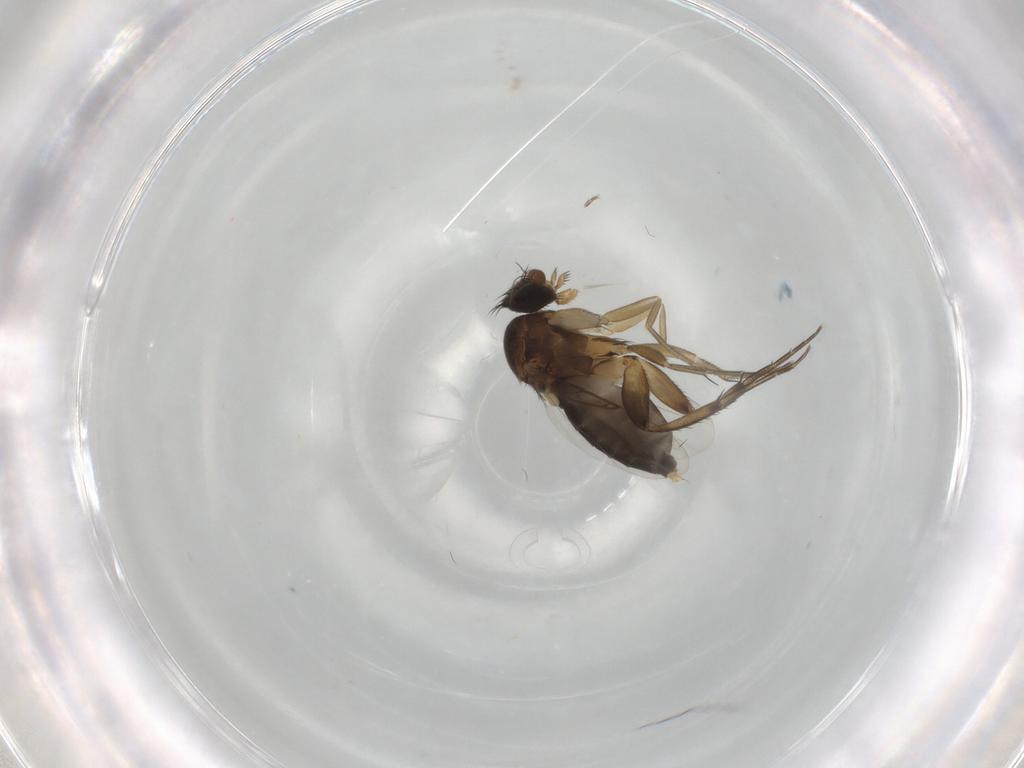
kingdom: Animalia
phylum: Arthropoda
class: Insecta
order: Diptera
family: Phoridae
